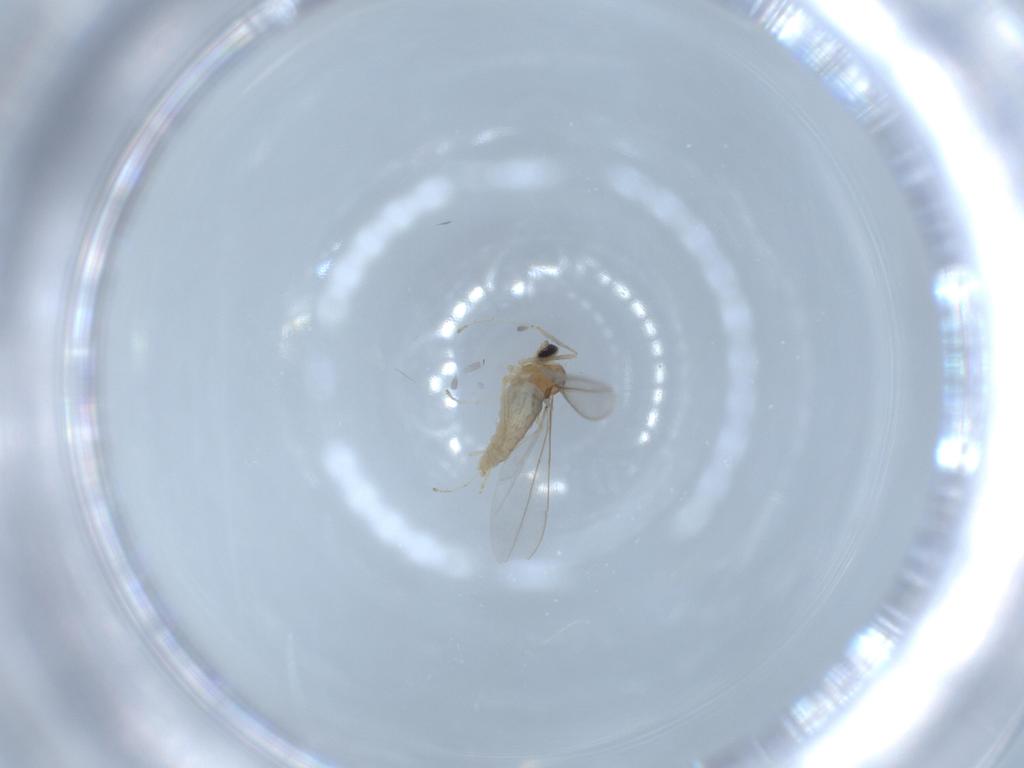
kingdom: Animalia
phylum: Arthropoda
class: Insecta
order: Diptera
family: Cecidomyiidae
